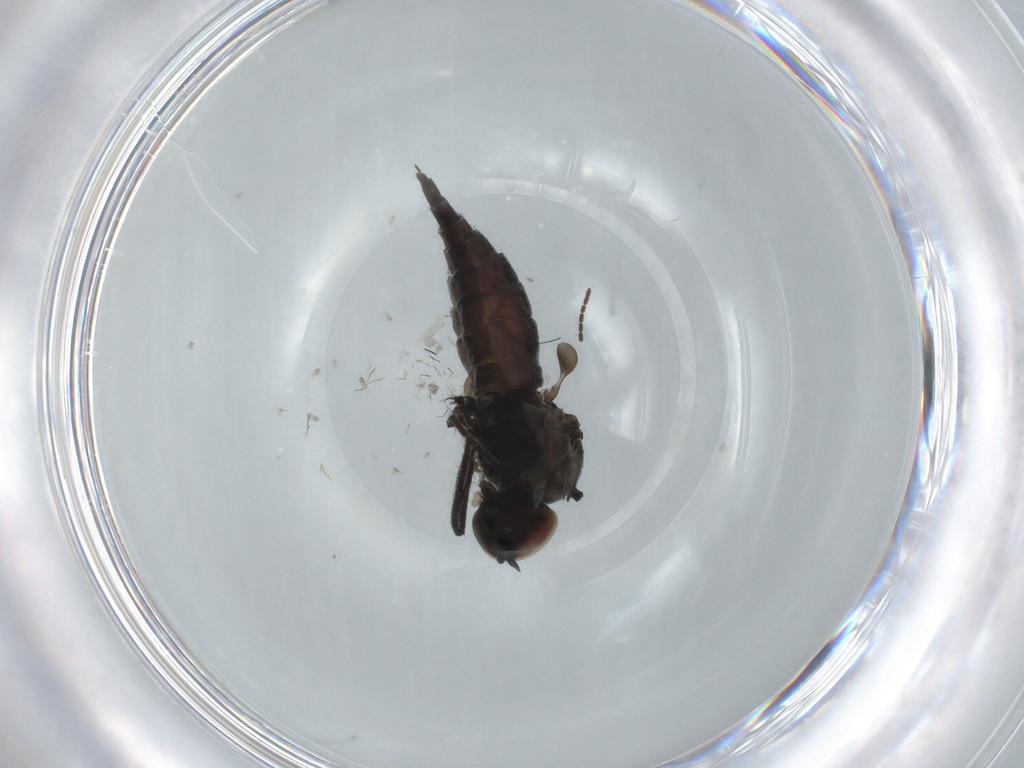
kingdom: Animalia
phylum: Arthropoda
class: Insecta
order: Diptera
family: Hybotidae
